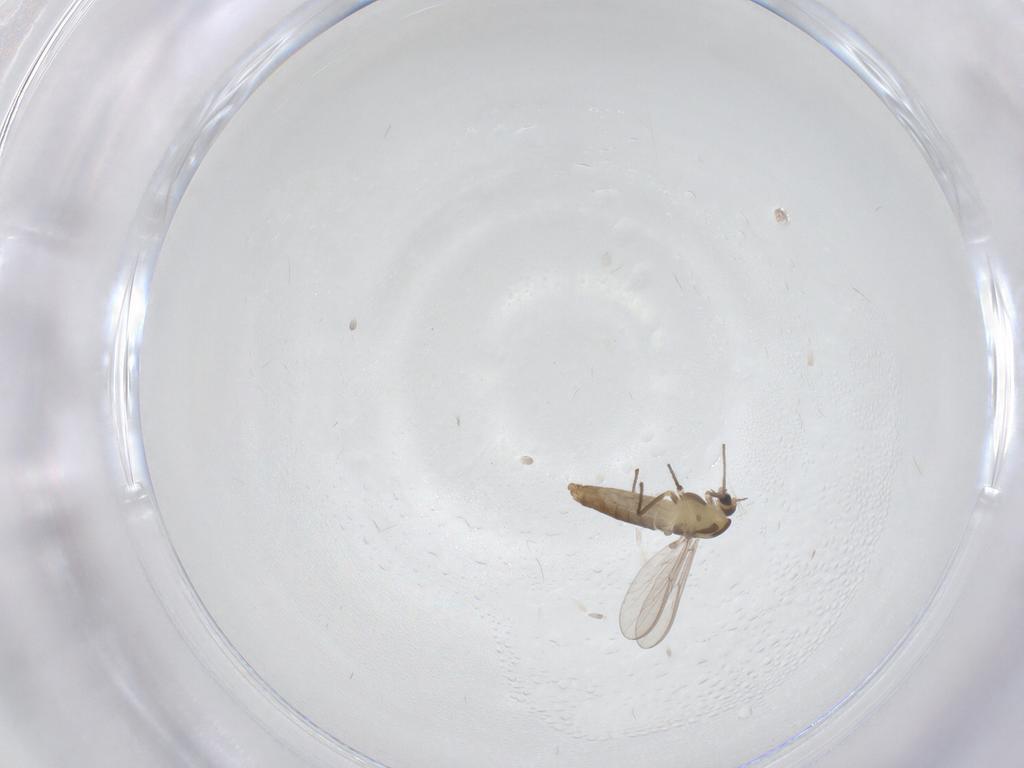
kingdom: Animalia
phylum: Arthropoda
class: Insecta
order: Diptera
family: Chironomidae
